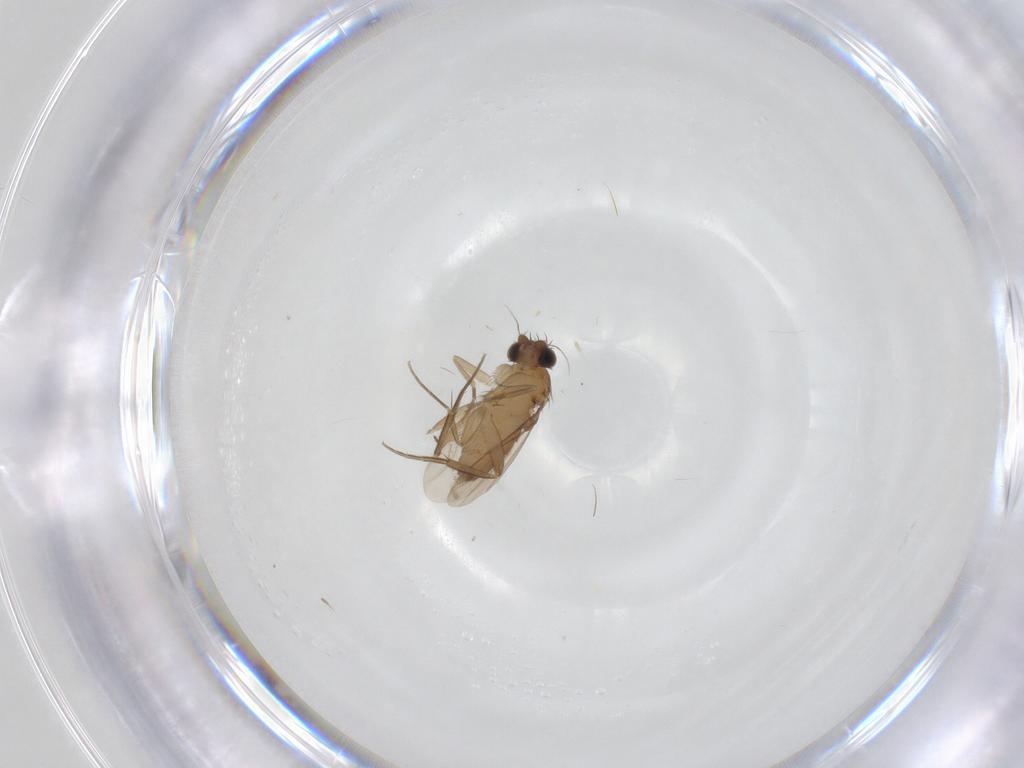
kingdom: Animalia
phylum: Arthropoda
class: Insecta
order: Diptera
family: Phoridae
